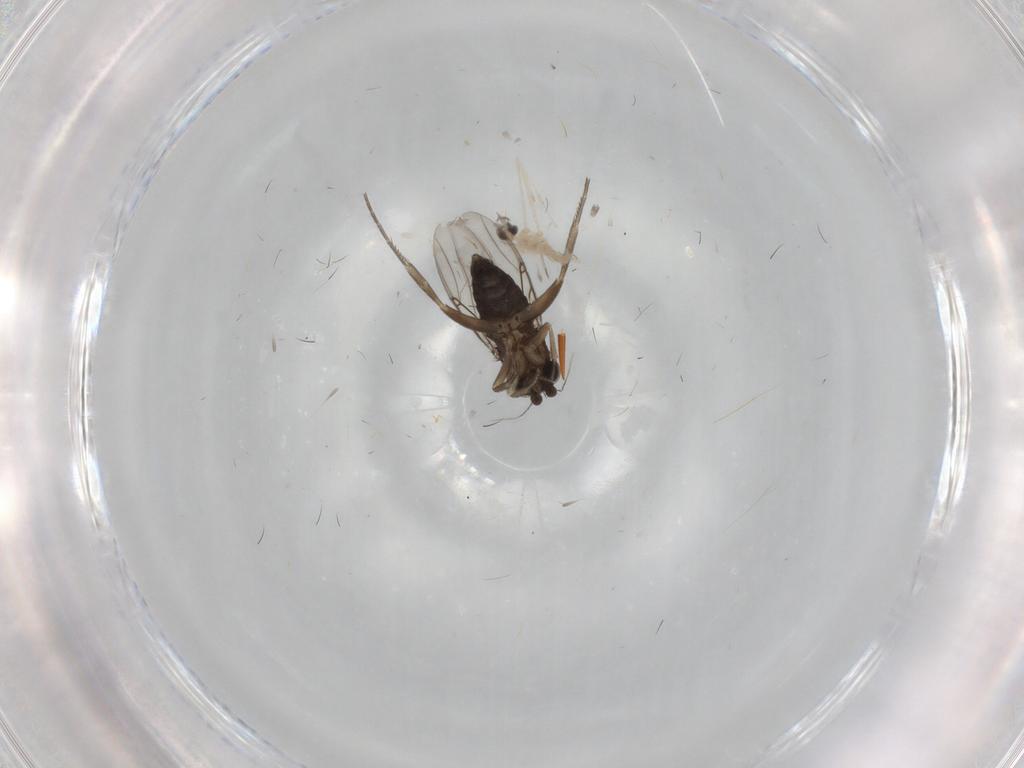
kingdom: Animalia
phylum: Arthropoda
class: Insecta
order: Diptera
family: Phoridae
